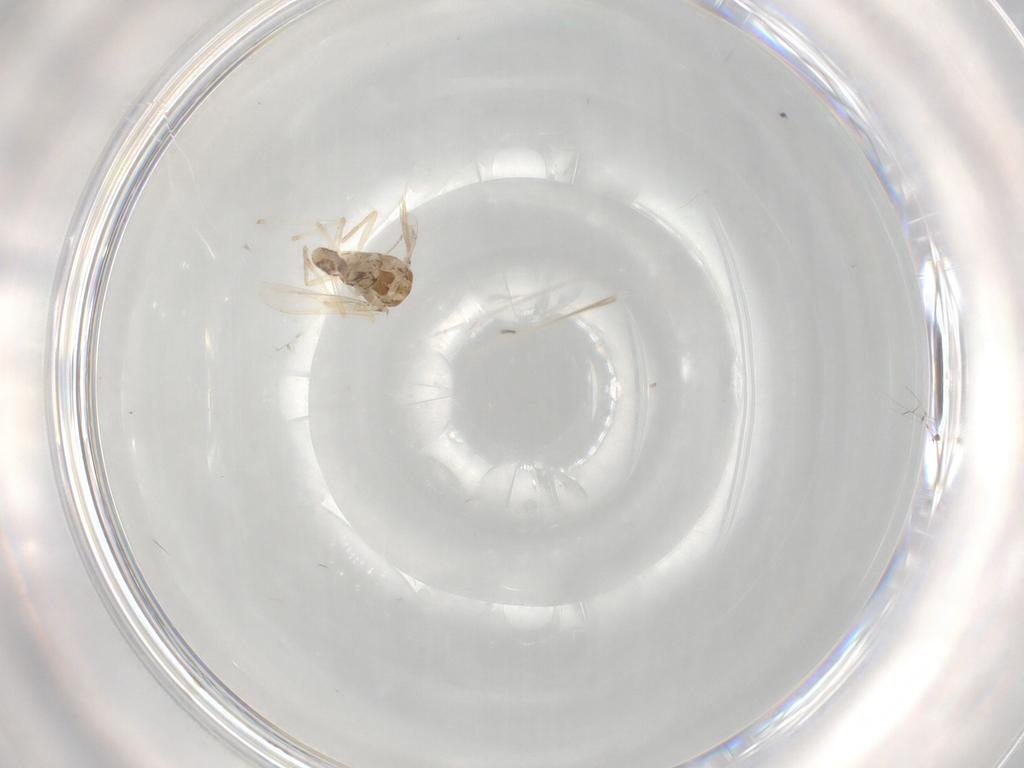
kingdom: Animalia
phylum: Arthropoda
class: Insecta
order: Diptera
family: Chironomidae
